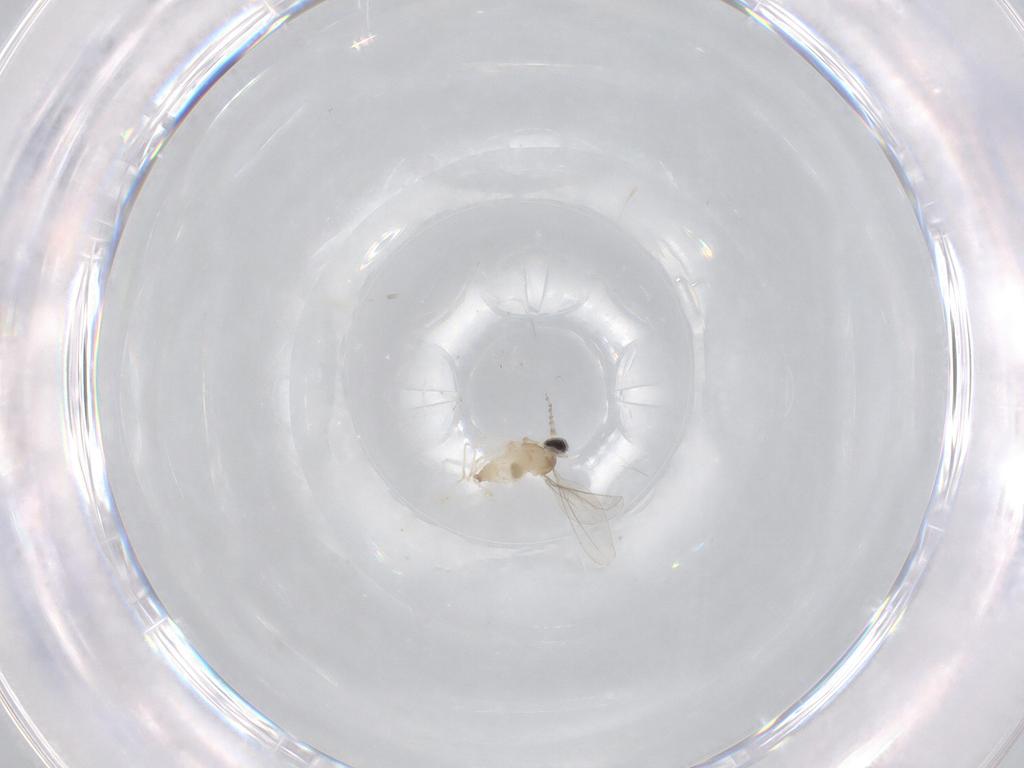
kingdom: Animalia
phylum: Arthropoda
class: Insecta
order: Diptera
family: Cecidomyiidae
